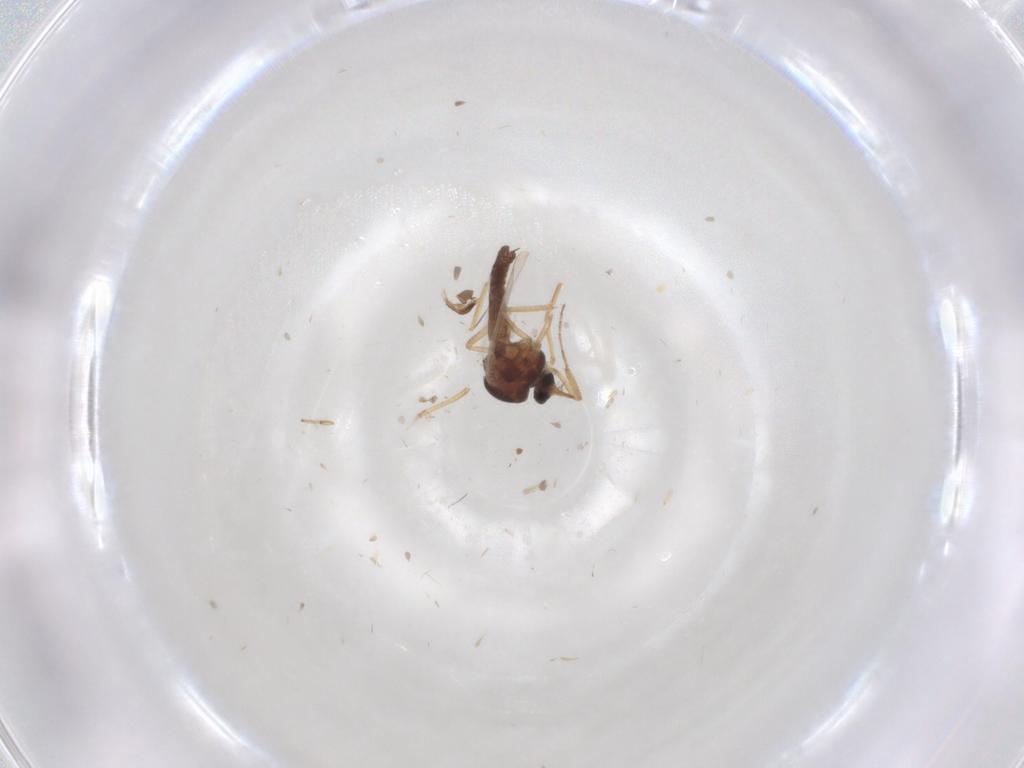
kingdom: Animalia
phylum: Arthropoda
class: Insecta
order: Diptera
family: Ceratopogonidae
